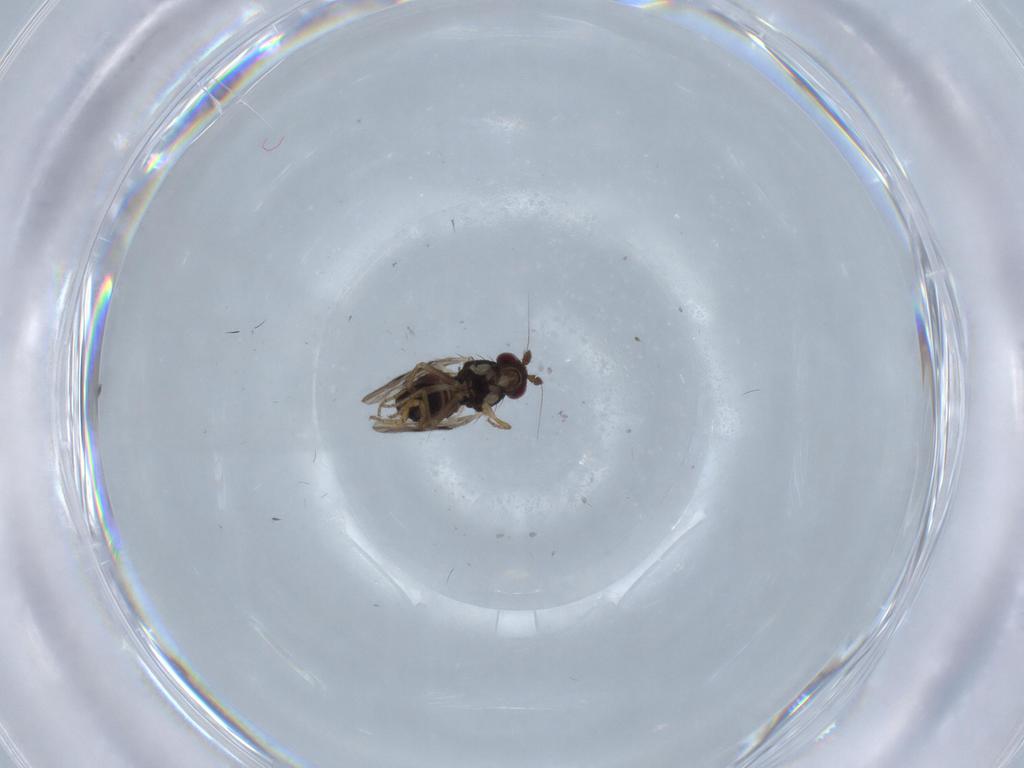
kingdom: Animalia
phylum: Arthropoda
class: Insecta
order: Diptera
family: Sphaeroceridae
